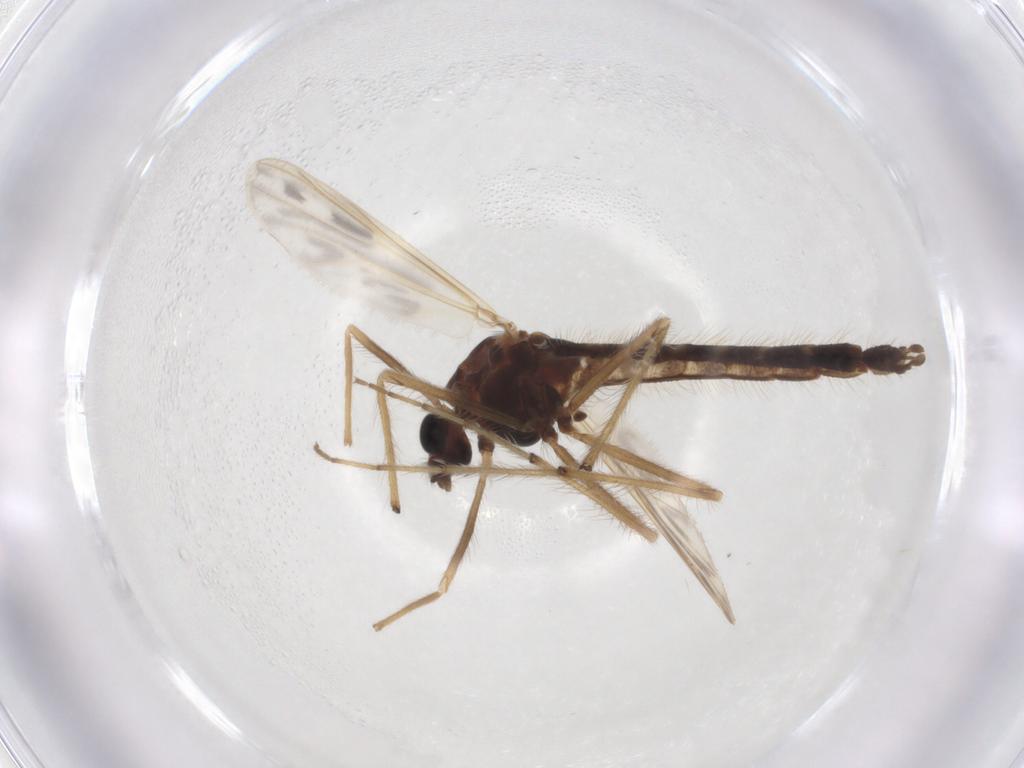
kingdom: Animalia
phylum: Arthropoda
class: Insecta
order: Diptera
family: Chironomidae
